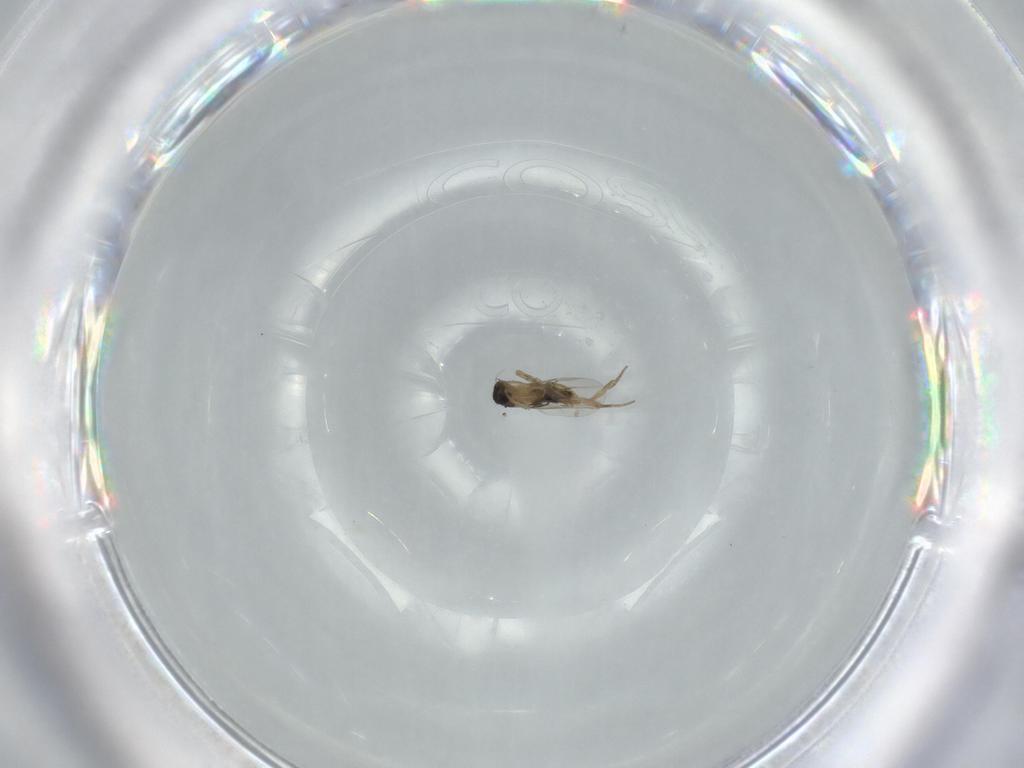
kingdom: Animalia
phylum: Arthropoda
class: Insecta
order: Diptera
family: Phoridae
